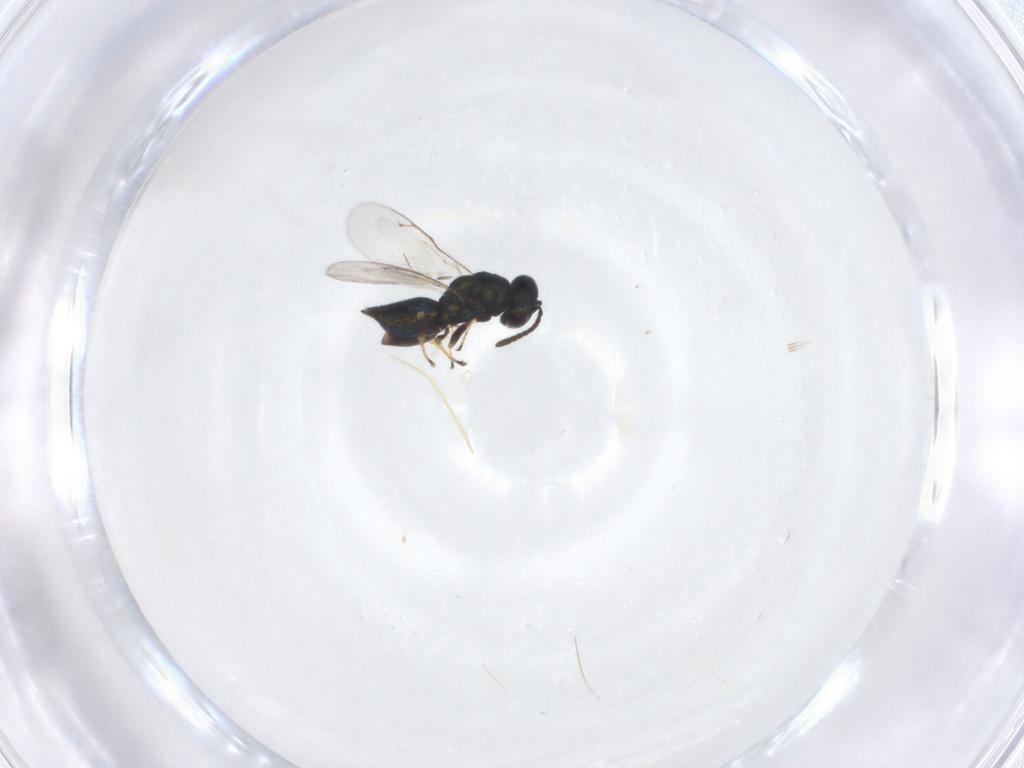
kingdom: Animalia
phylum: Arthropoda
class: Insecta
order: Hymenoptera
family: Pteromalidae
